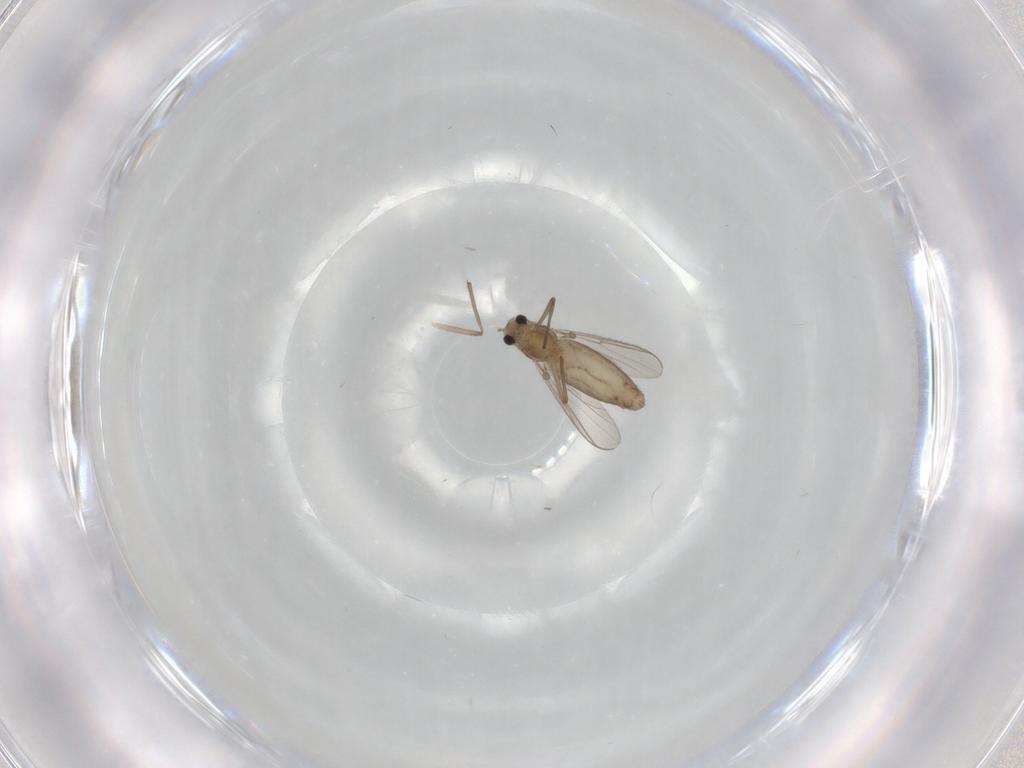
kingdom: Animalia
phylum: Arthropoda
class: Insecta
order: Diptera
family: Chironomidae
